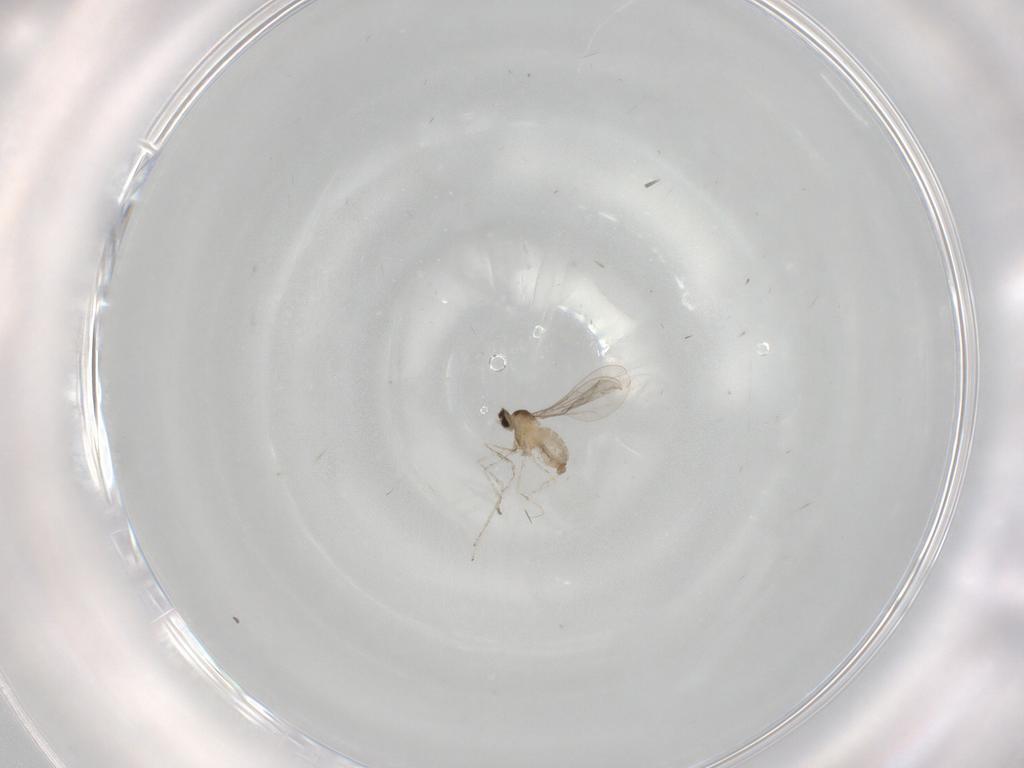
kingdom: Animalia
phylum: Arthropoda
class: Insecta
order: Diptera
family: Cecidomyiidae
